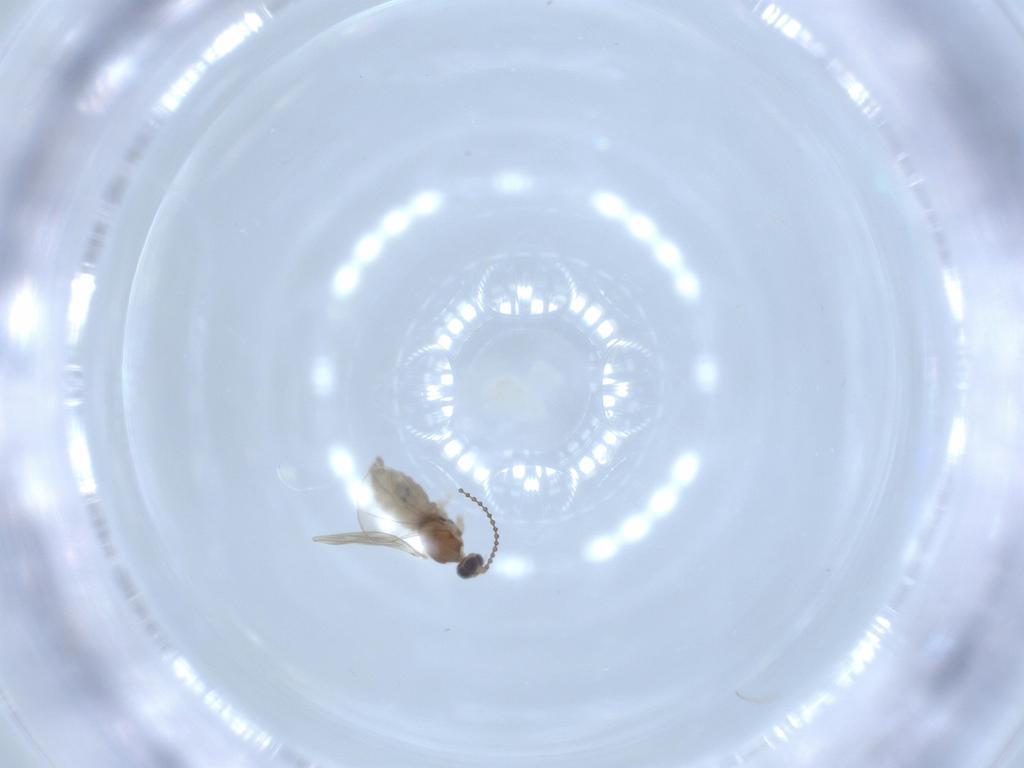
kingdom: Animalia
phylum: Arthropoda
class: Insecta
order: Diptera
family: Cecidomyiidae
